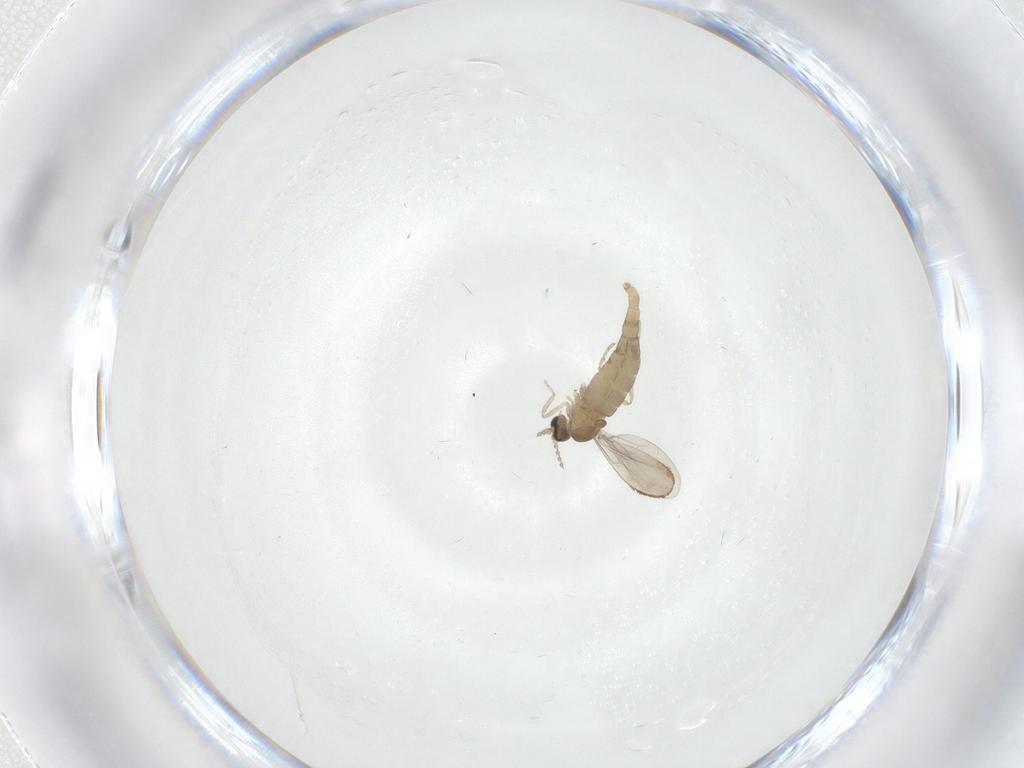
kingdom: Animalia
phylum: Arthropoda
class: Insecta
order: Diptera
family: Cecidomyiidae
